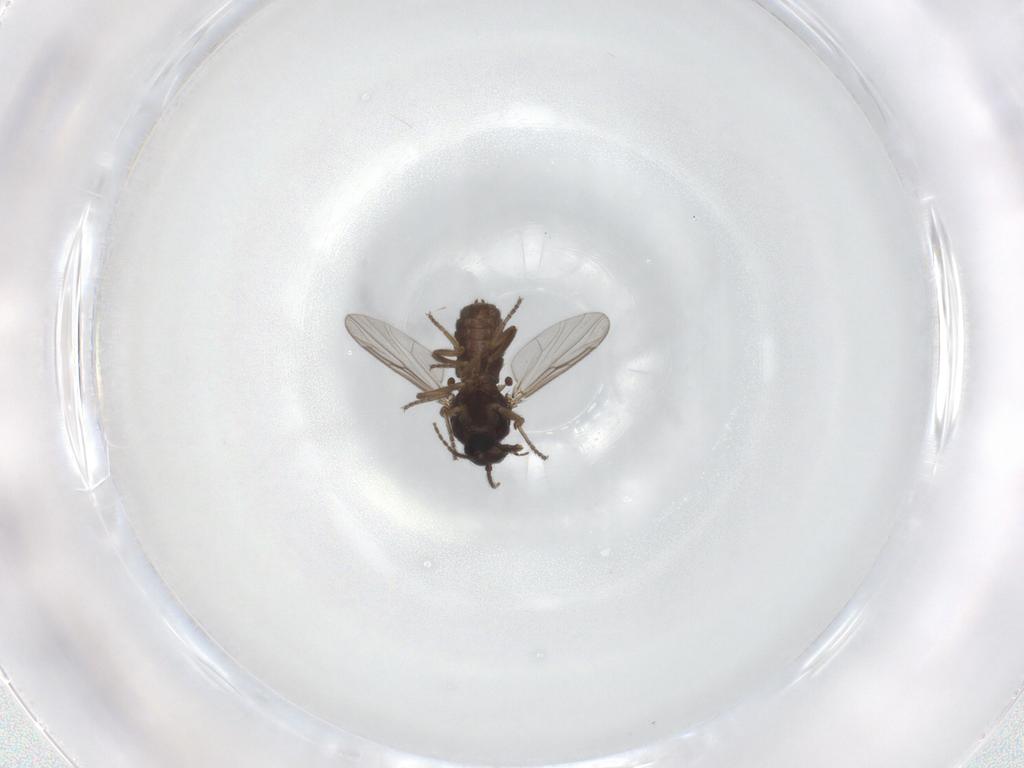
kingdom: Animalia
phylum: Arthropoda
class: Insecta
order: Diptera
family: Ceratopogonidae
